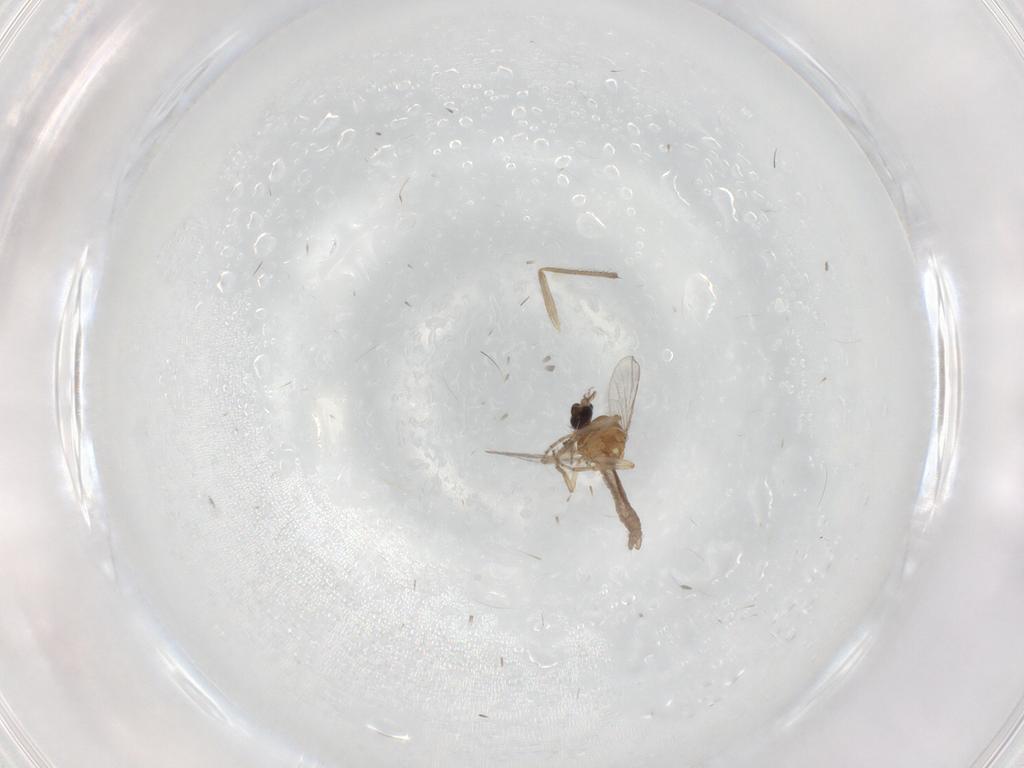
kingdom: Animalia
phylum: Arthropoda
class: Insecta
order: Diptera
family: Chironomidae
